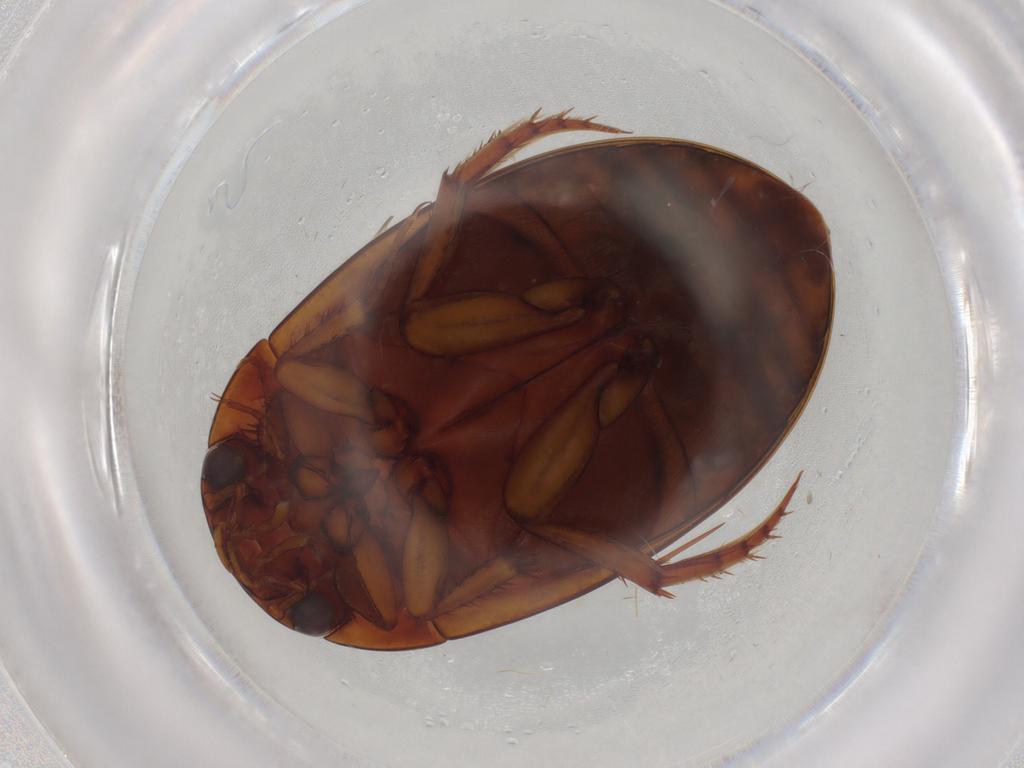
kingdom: Animalia
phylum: Arthropoda
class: Insecta
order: Coleoptera
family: Dytiscidae
